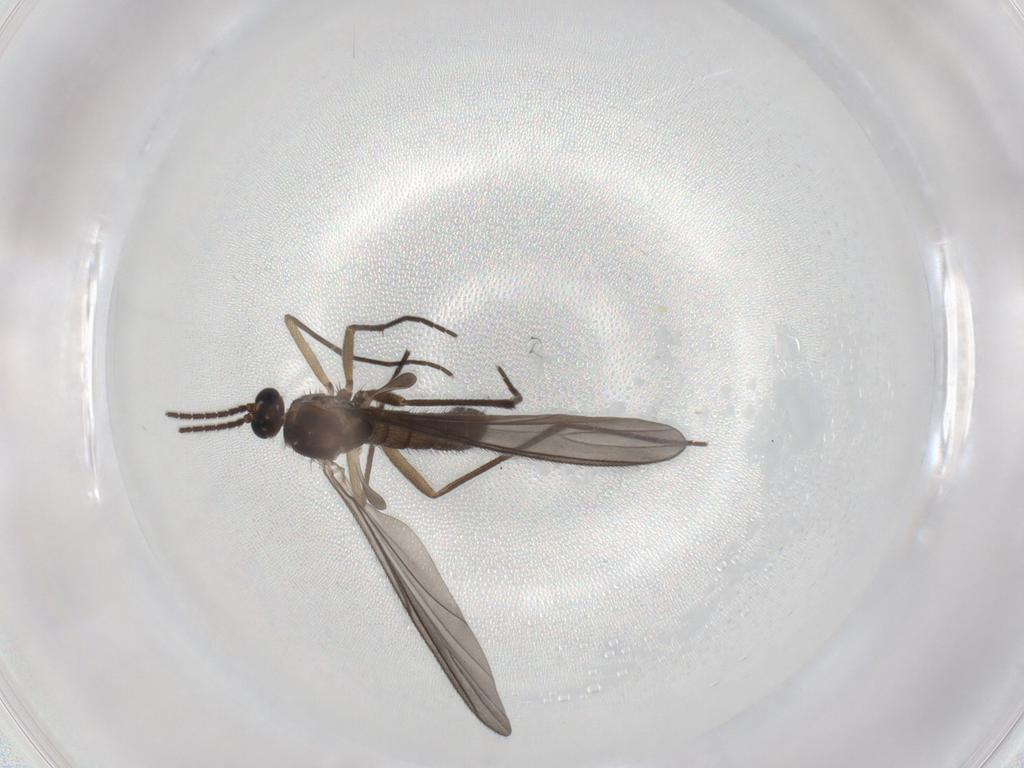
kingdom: Animalia
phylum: Arthropoda
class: Insecta
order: Diptera
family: Sciaridae
